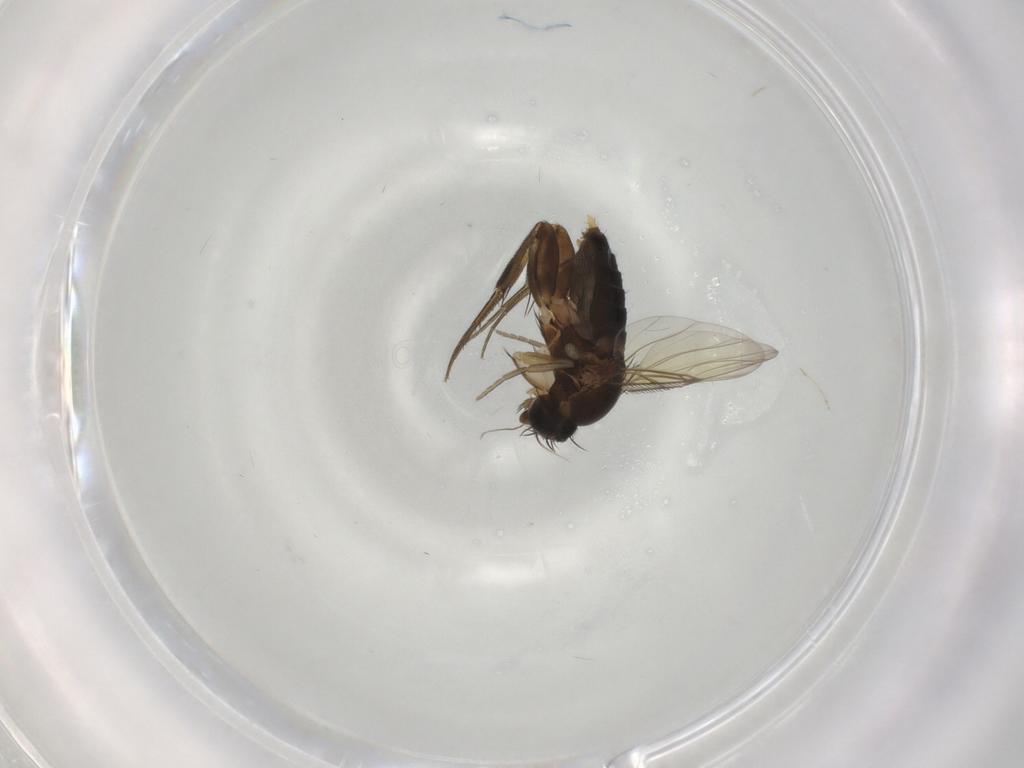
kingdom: Animalia
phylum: Arthropoda
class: Insecta
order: Diptera
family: Phoridae
